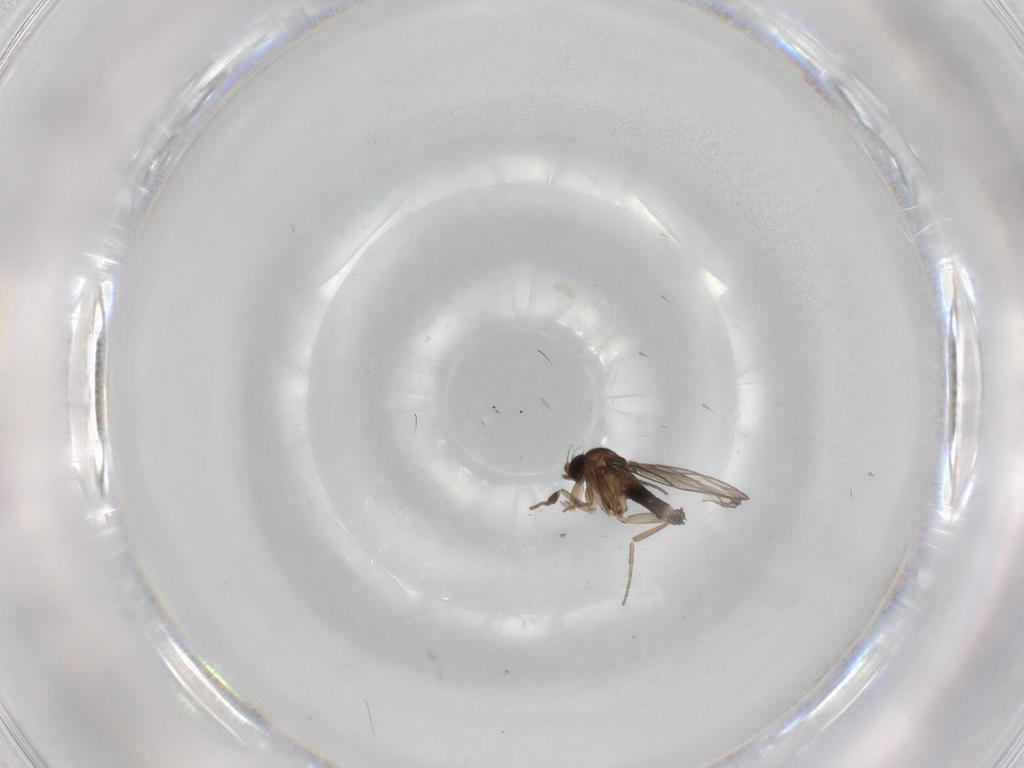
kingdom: Animalia
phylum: Arthropoda
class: Insecta
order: Diptera
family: Phoridae
